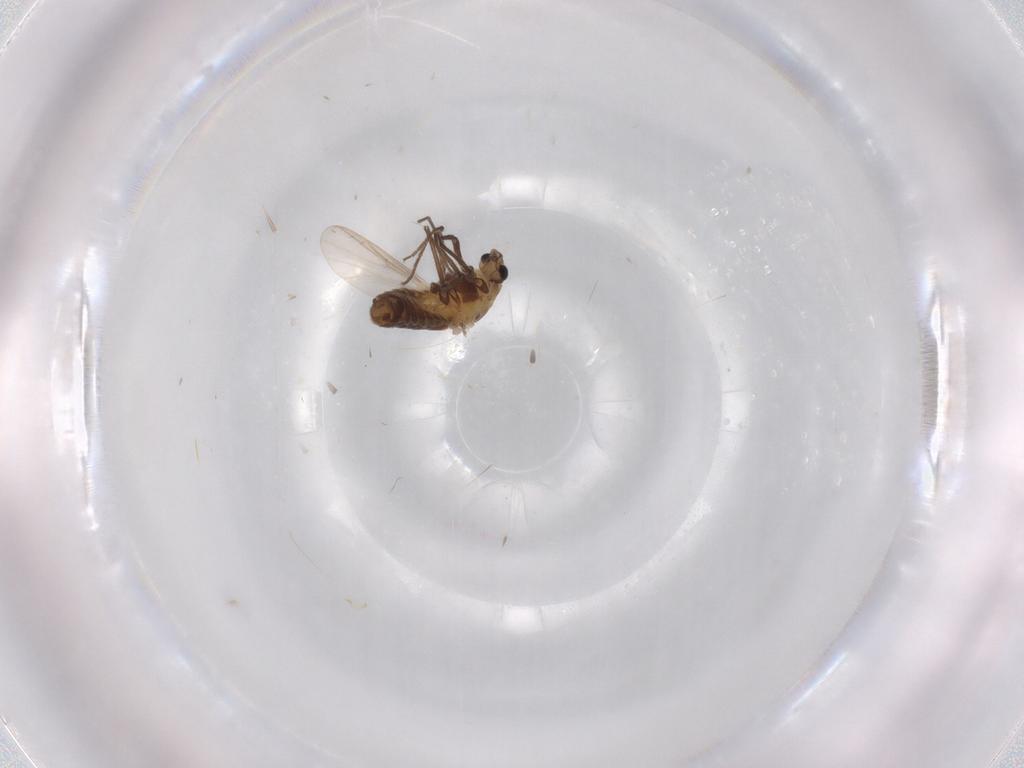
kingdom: Animalia
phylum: Arthropoda
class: Insecta
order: Diptera
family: Chironomidae
